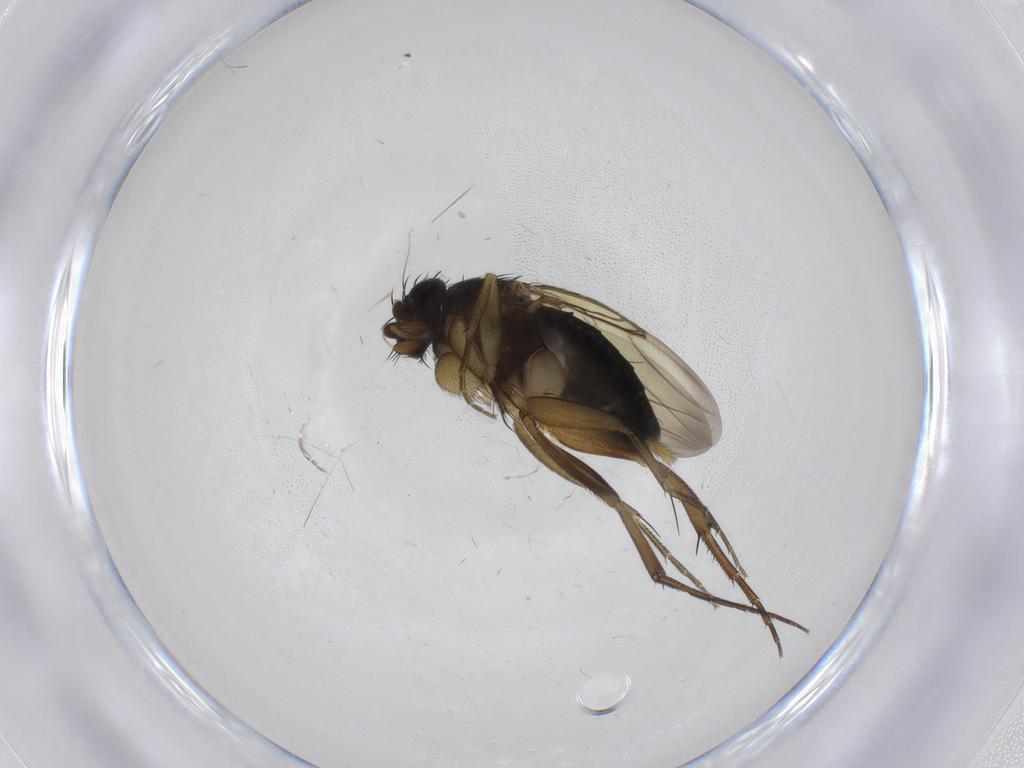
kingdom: Animalia
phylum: Arthropoda
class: Insecta
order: Diptera
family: Phoridae
